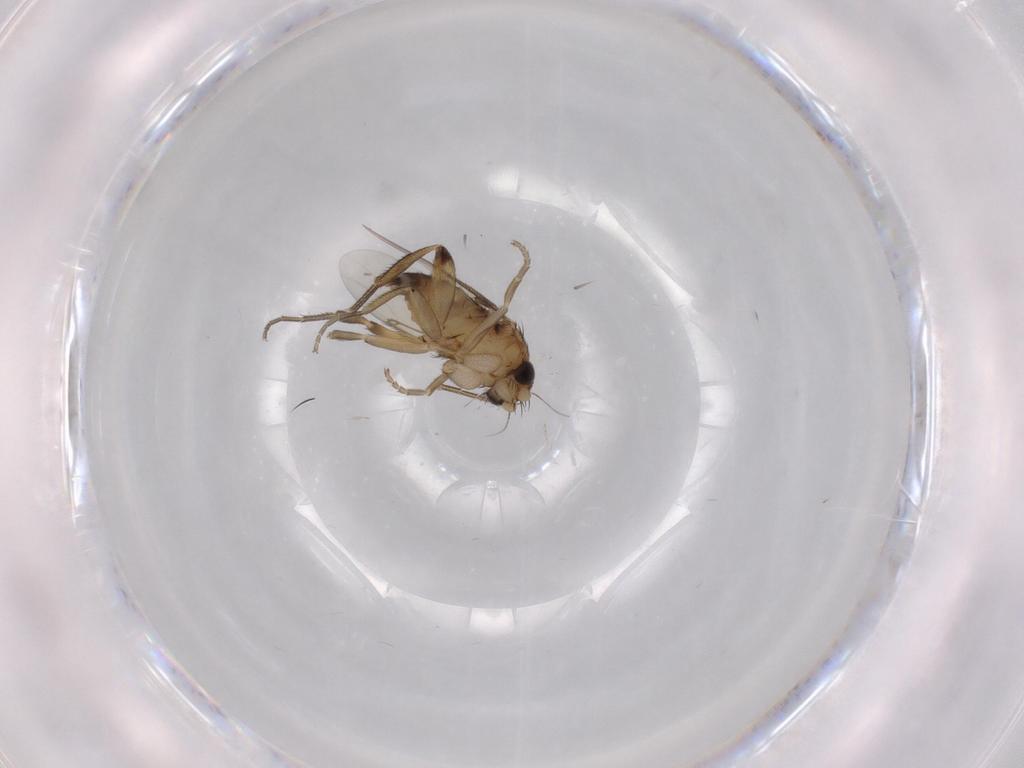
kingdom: Animalia
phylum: Arthropoda
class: Insecta
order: Diptera
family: Phoridae
